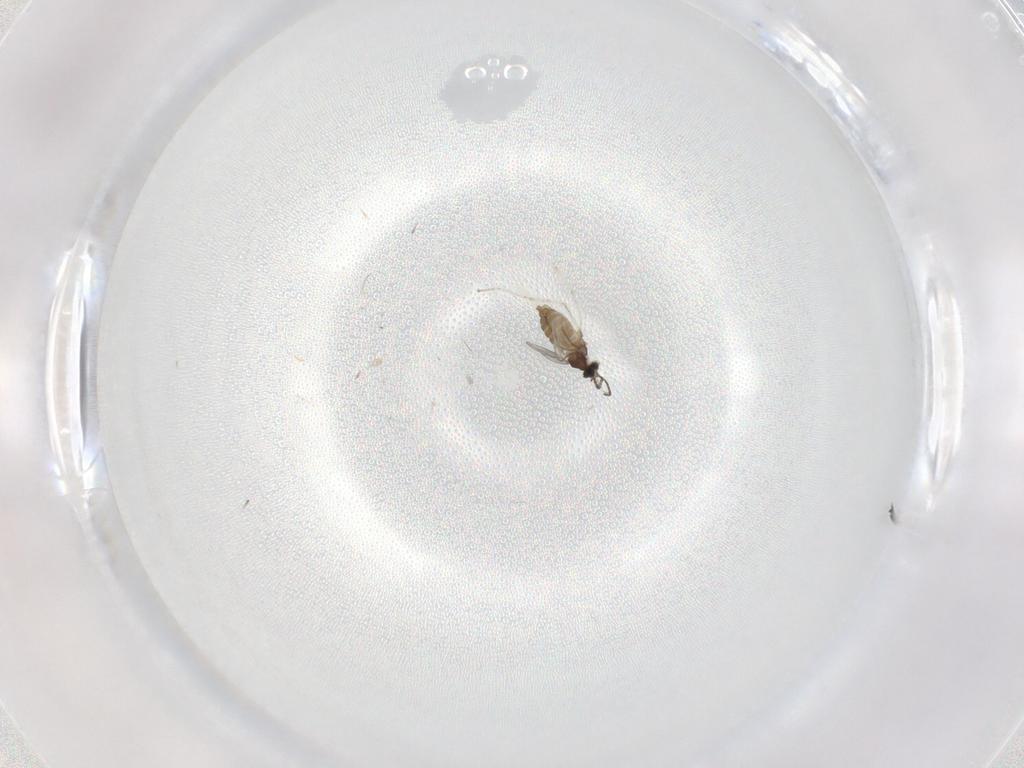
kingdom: Animalia
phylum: Arthropoda
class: Insecta
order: Diptera
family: Cecidomyiidae
